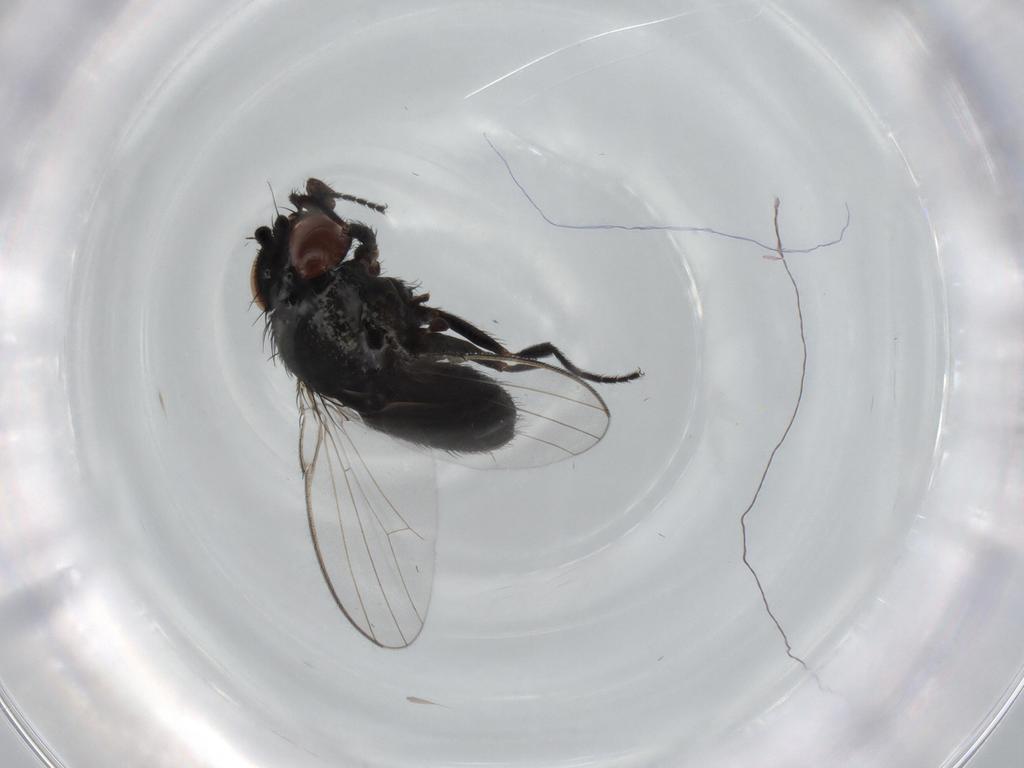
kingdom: Animalia
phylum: Arthropoda
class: Insecta
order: Diptera
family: Milichiidae
